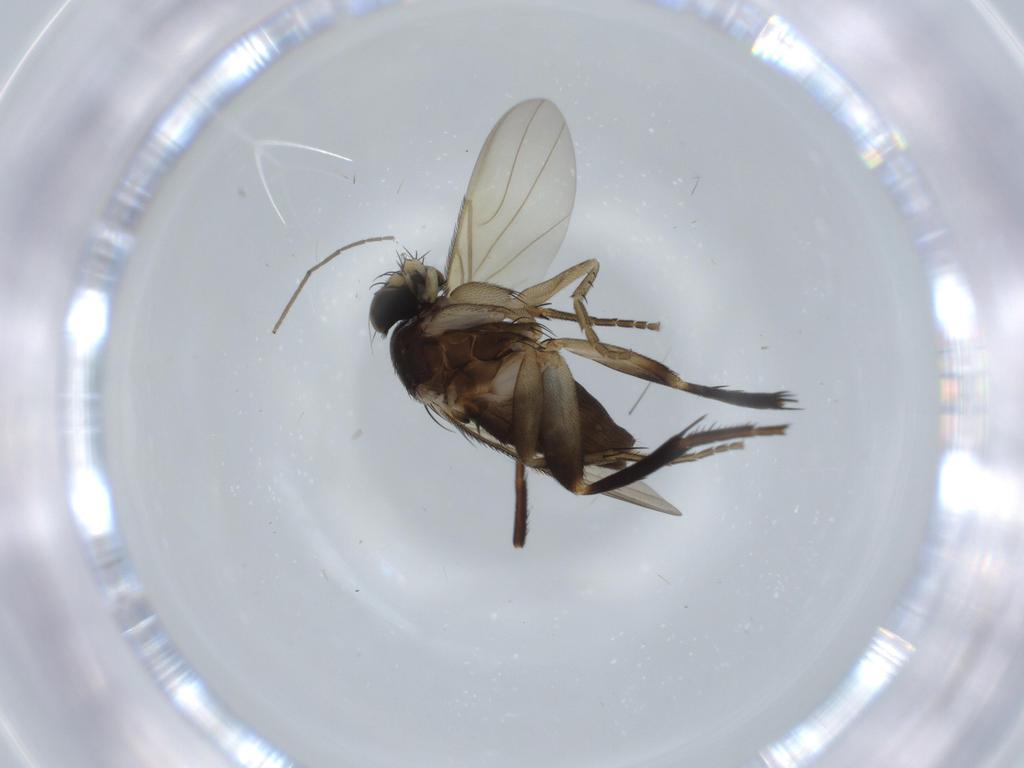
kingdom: Animalia
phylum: Arthropoda
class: Insecta
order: Diptera
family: Phoridae
